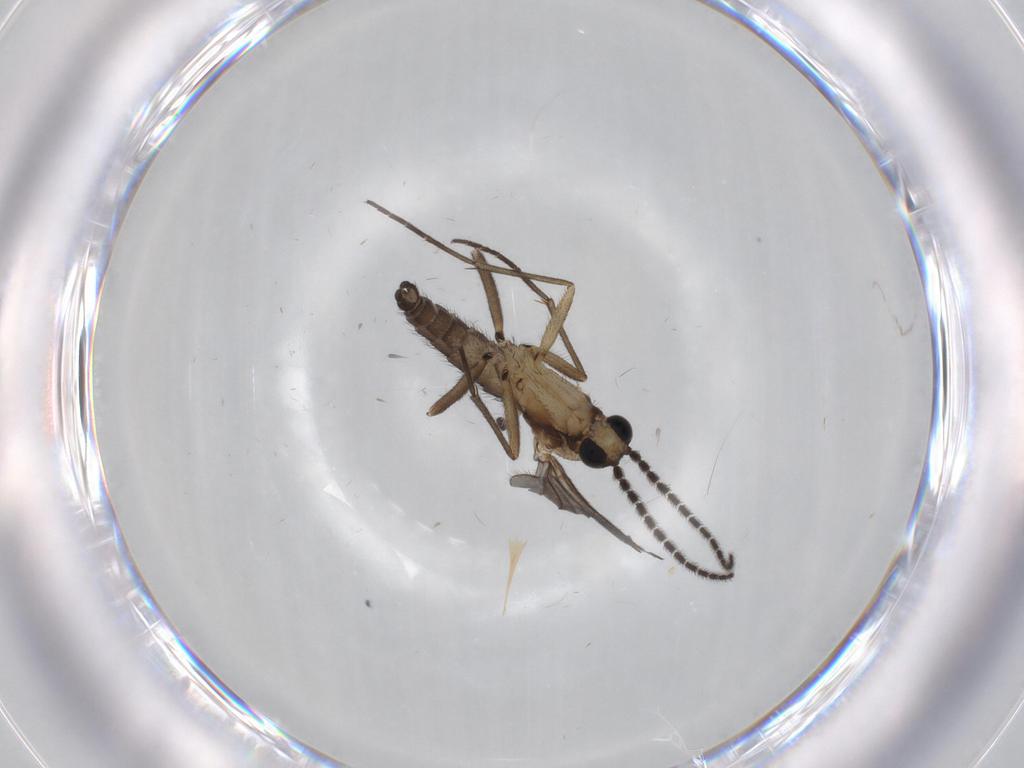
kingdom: Animalia
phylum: Arthropoda
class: Insecta
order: Diptera
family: Sciaridae
